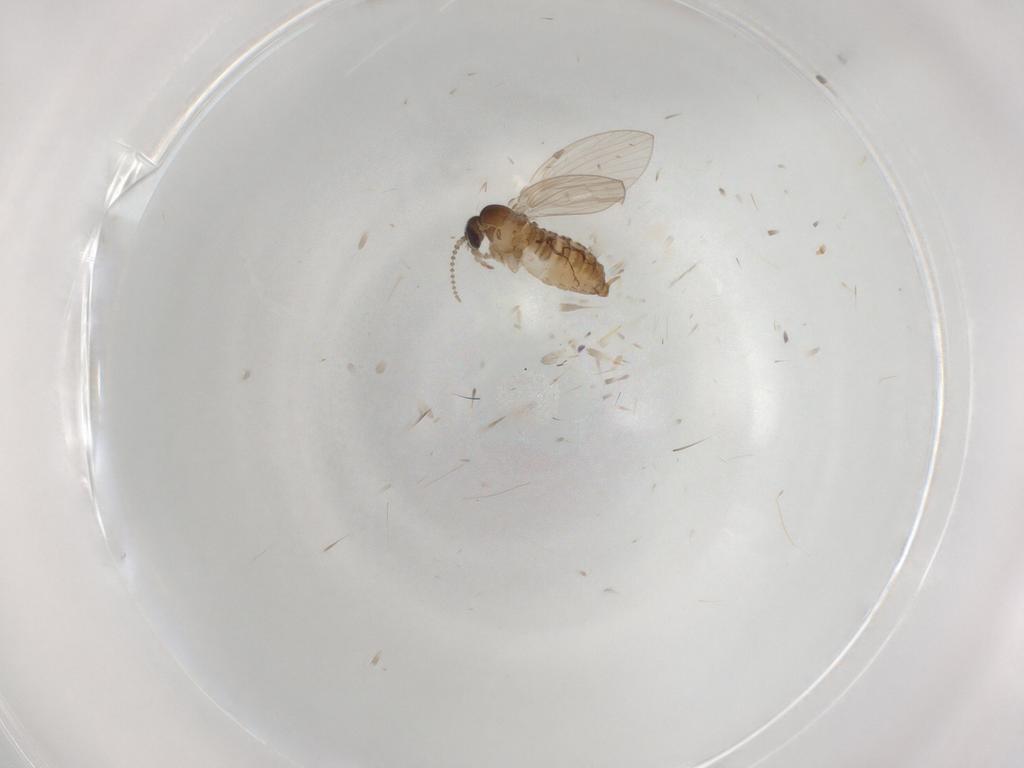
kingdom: Animalia
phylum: Arthropoda
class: Insecta
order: Diptera
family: Psychodidae
